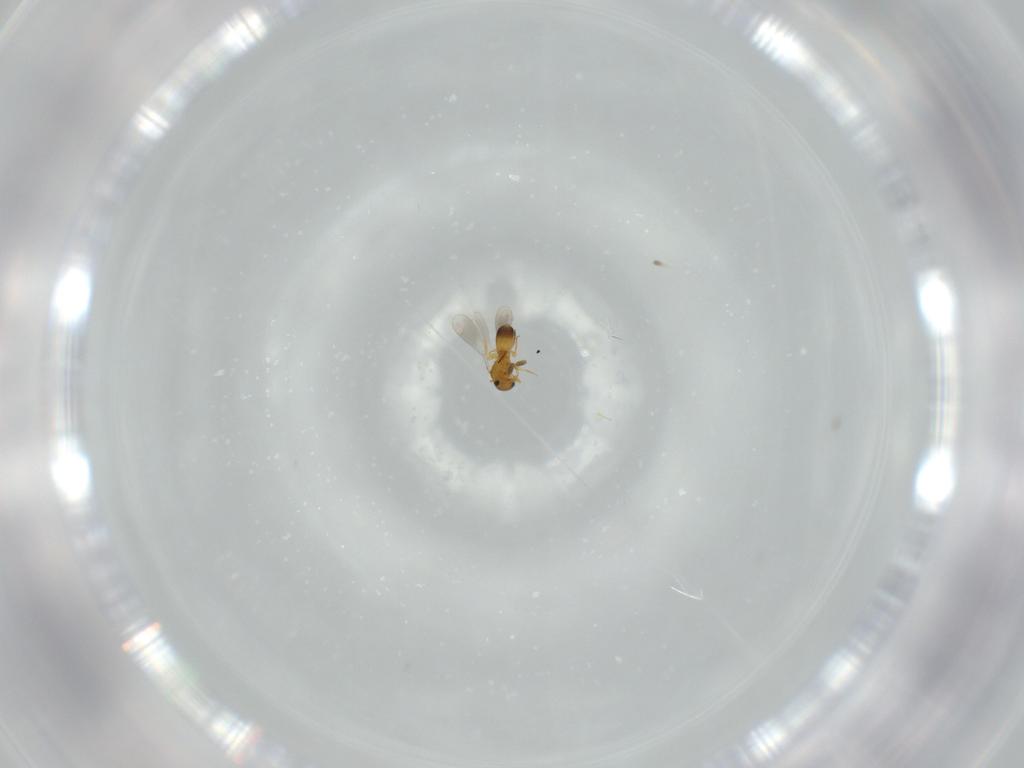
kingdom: Animalia
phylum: Arthropoda
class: Insecta
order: Hymenoptera
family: Platygastridae
